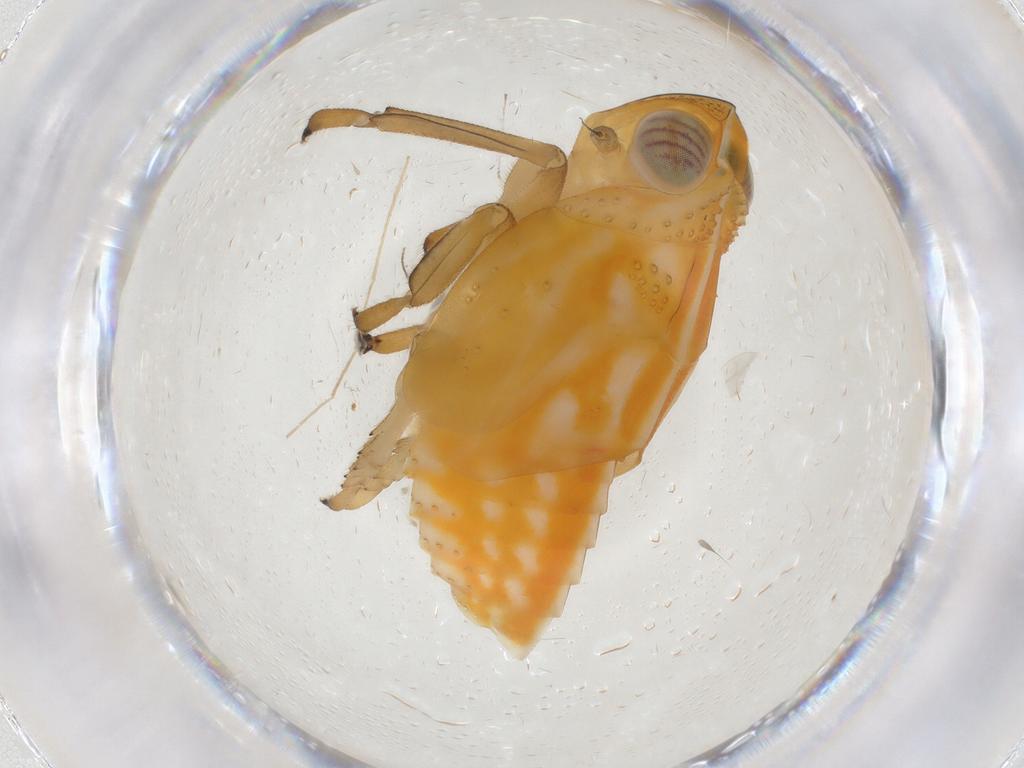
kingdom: Animalia
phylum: Arthropoda
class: Insecta
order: Hemiptera
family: Issidae
